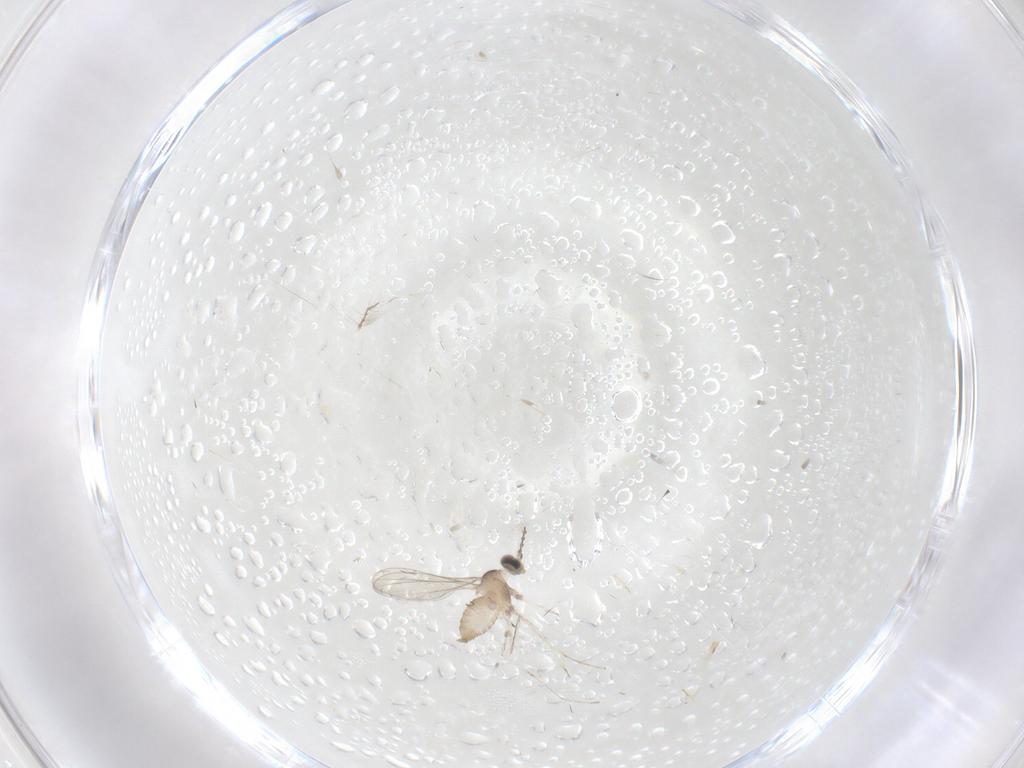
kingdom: Animalia
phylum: Arthropoda
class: Insecta
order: Diptera
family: Cecidomyiidae
